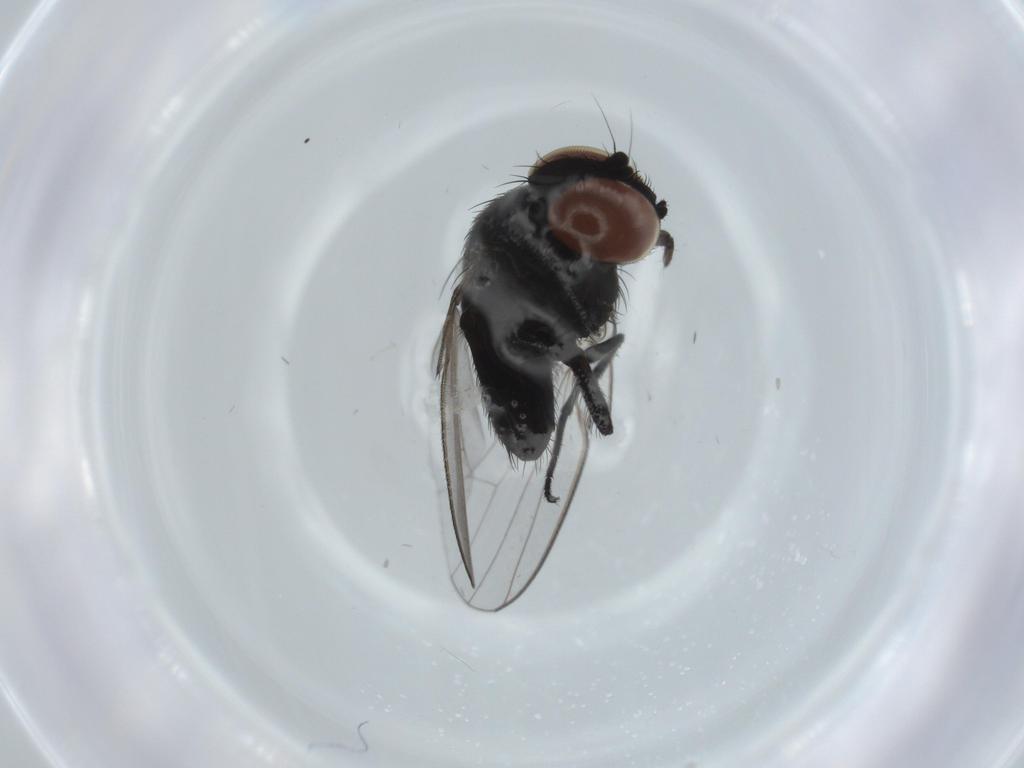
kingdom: Animalia
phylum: Arthropoda
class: Insecta
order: Diptera
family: Milichiidae
